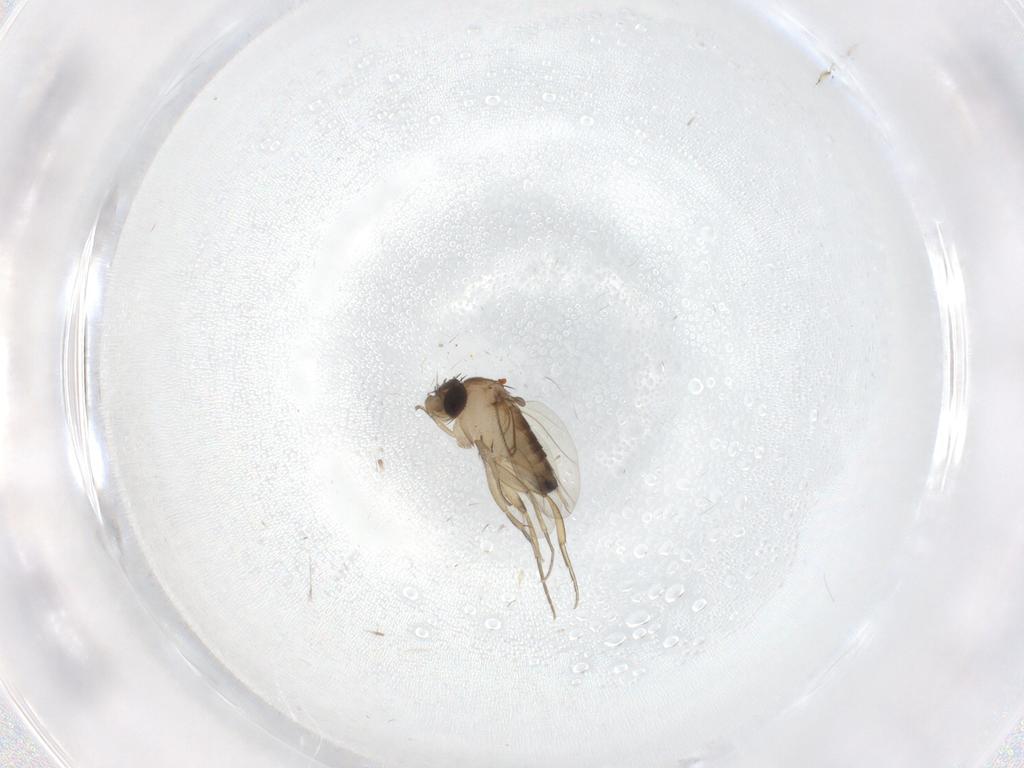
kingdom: Animalia
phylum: Arthropoda
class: Insecta
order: Diptera
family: Phoridae
